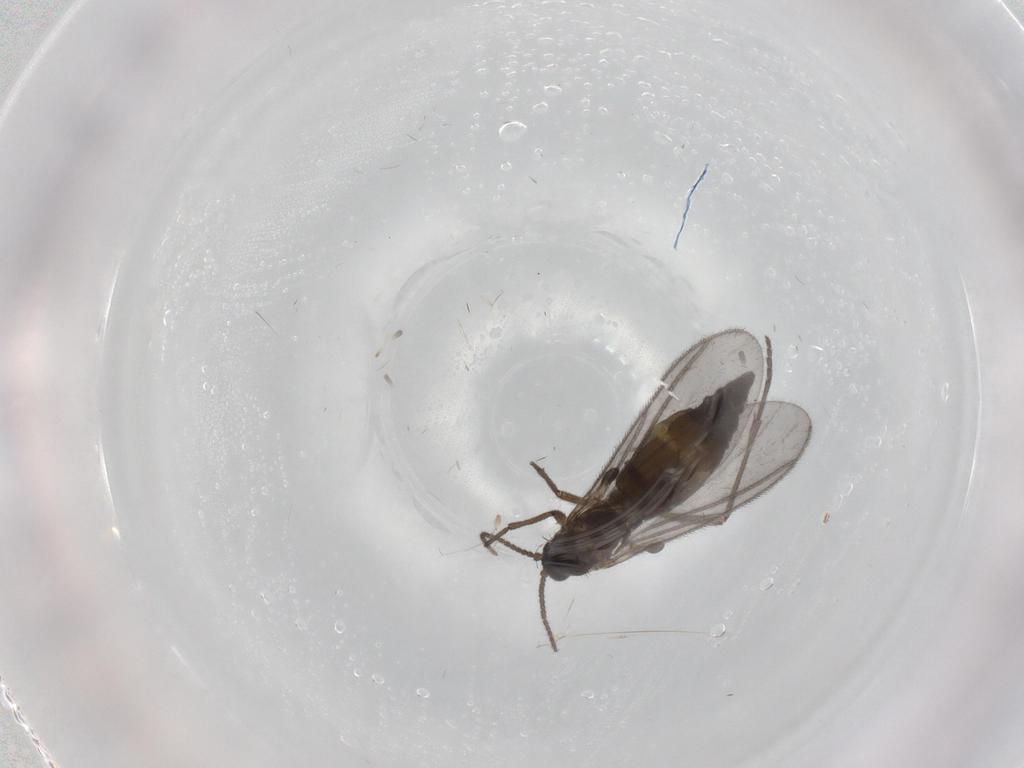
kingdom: Animalia
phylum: Arthropoda
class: Insecta
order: Diptera
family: Sciaridae
